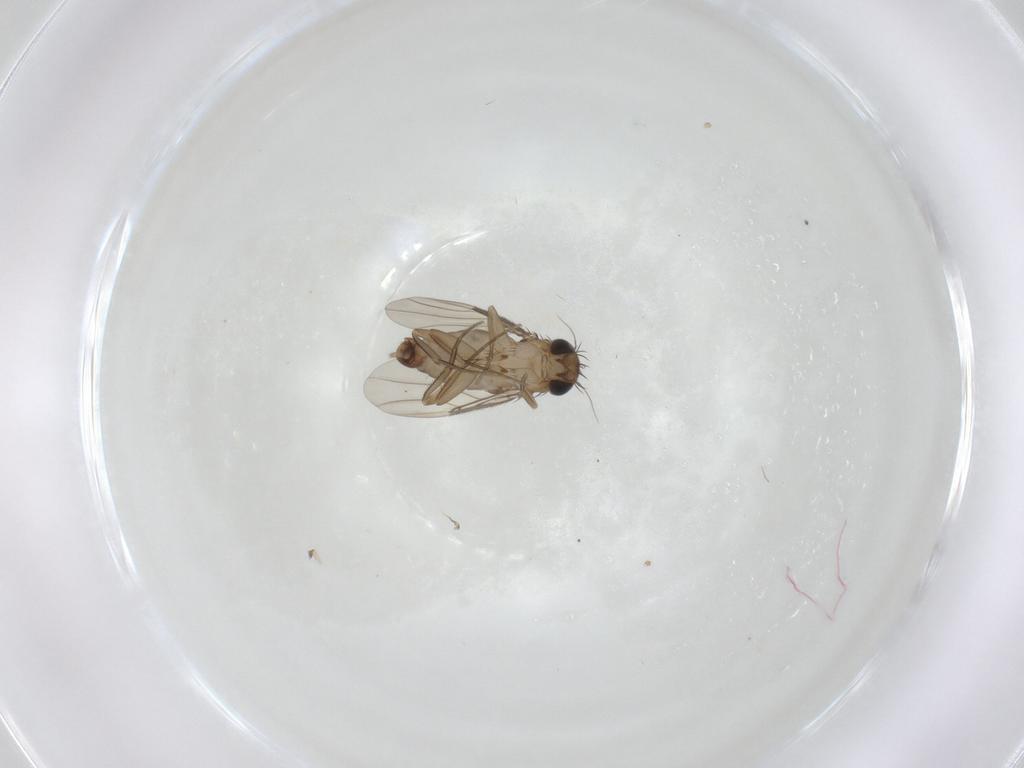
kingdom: Animalia
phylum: Arthropoda
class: Insecta
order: Diptera
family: Phoridae
